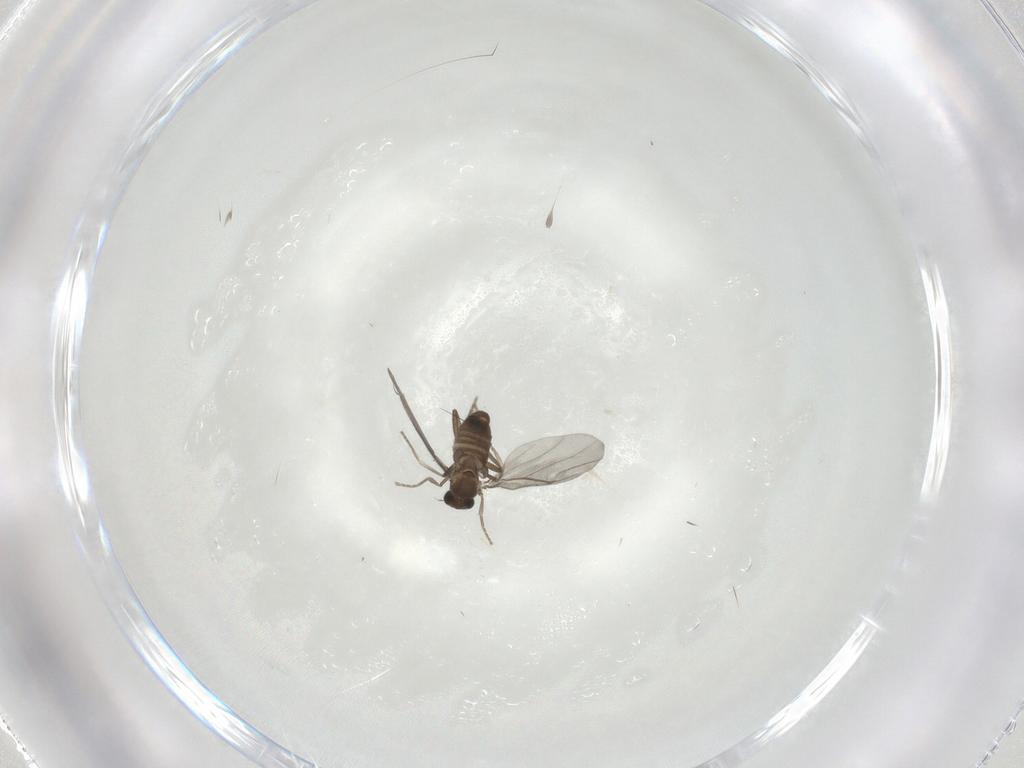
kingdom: Animalia
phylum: Arthropoda
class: Insecta
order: Diptera
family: Phoridae
